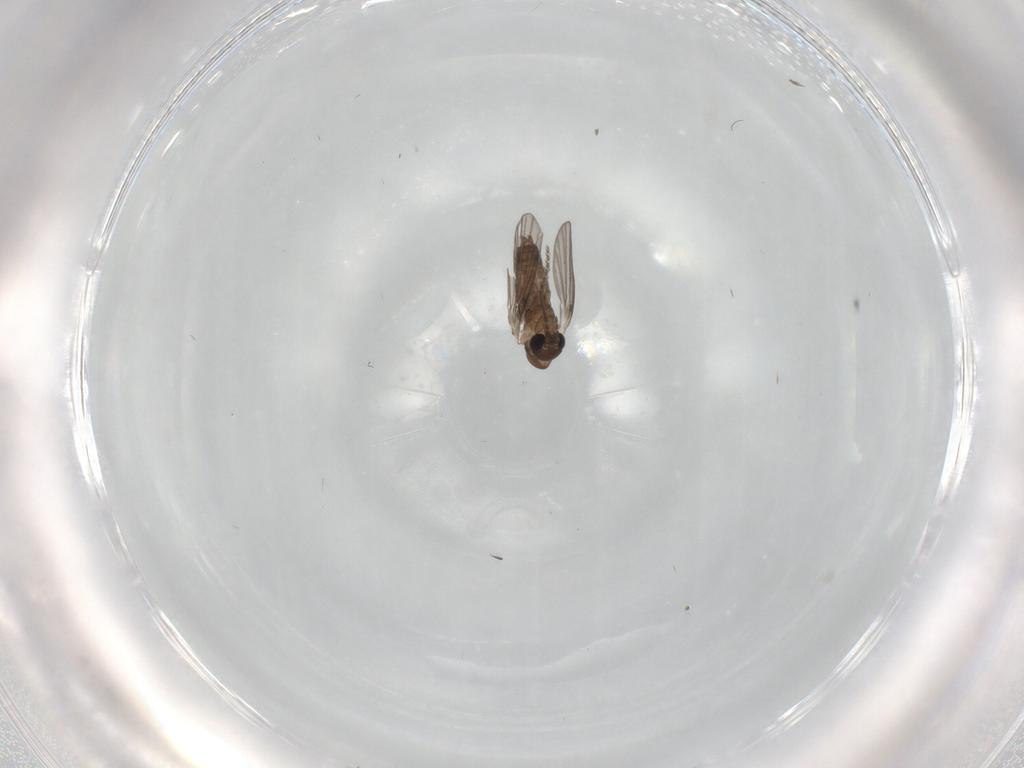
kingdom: Animalia
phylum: Arthropoda
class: Insecta
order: Diptera
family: Sciaridae
